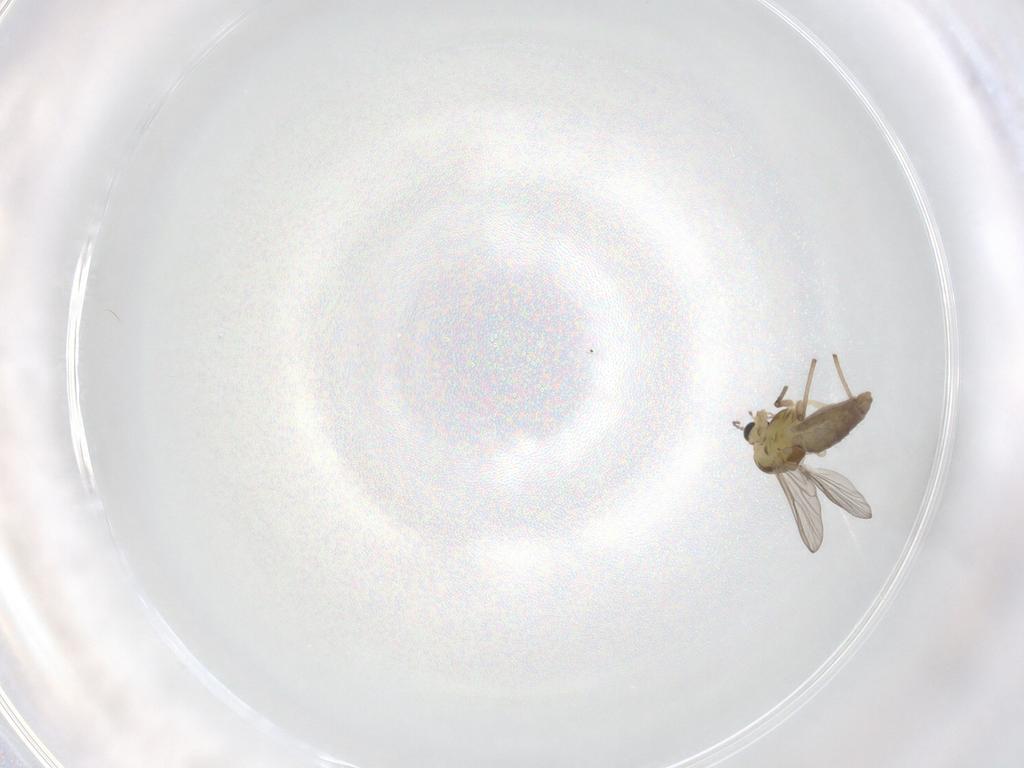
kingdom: Animalia
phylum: Arthropoda
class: Insecta
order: Diptera
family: Chironomidae
